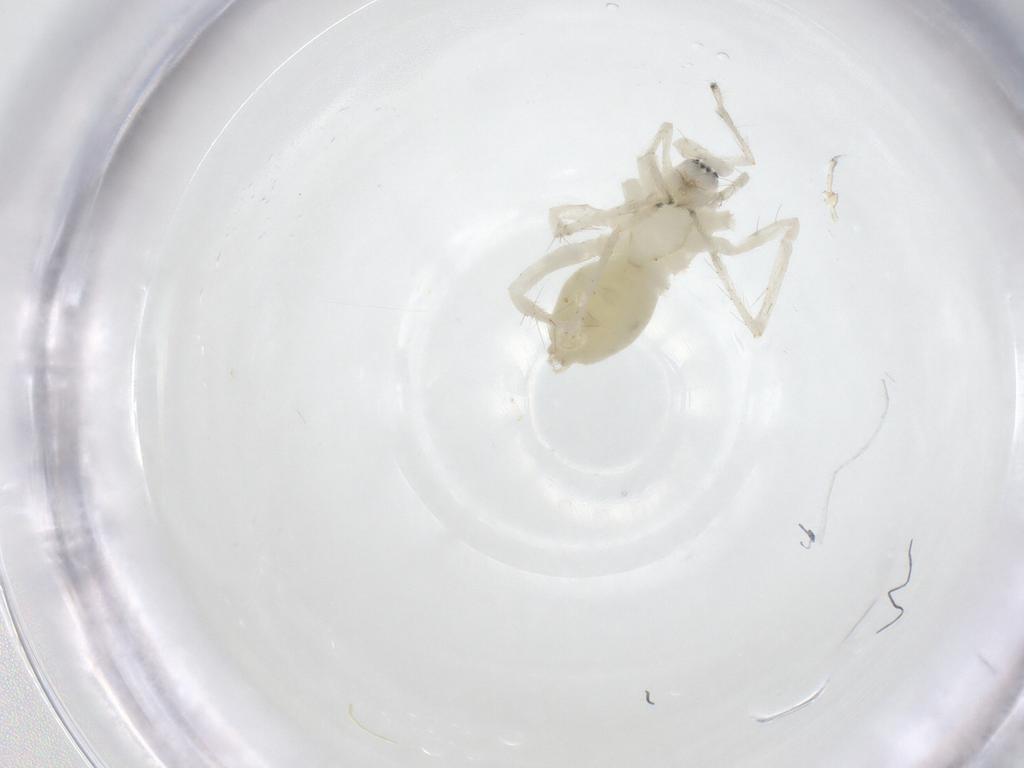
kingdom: Animalia
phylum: Arthropoda
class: Arachnida
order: Araneae
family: Anyphaenidae
